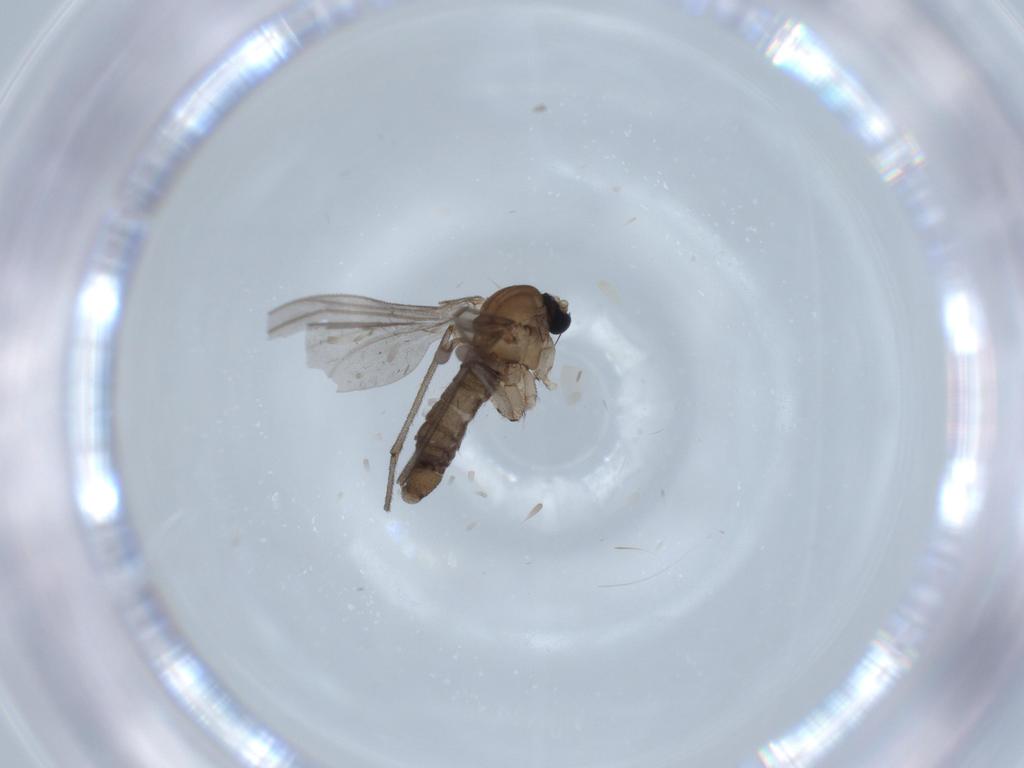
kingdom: Animalia
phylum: Arthropoda
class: Insecta
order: Diptera
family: Sciaridae
